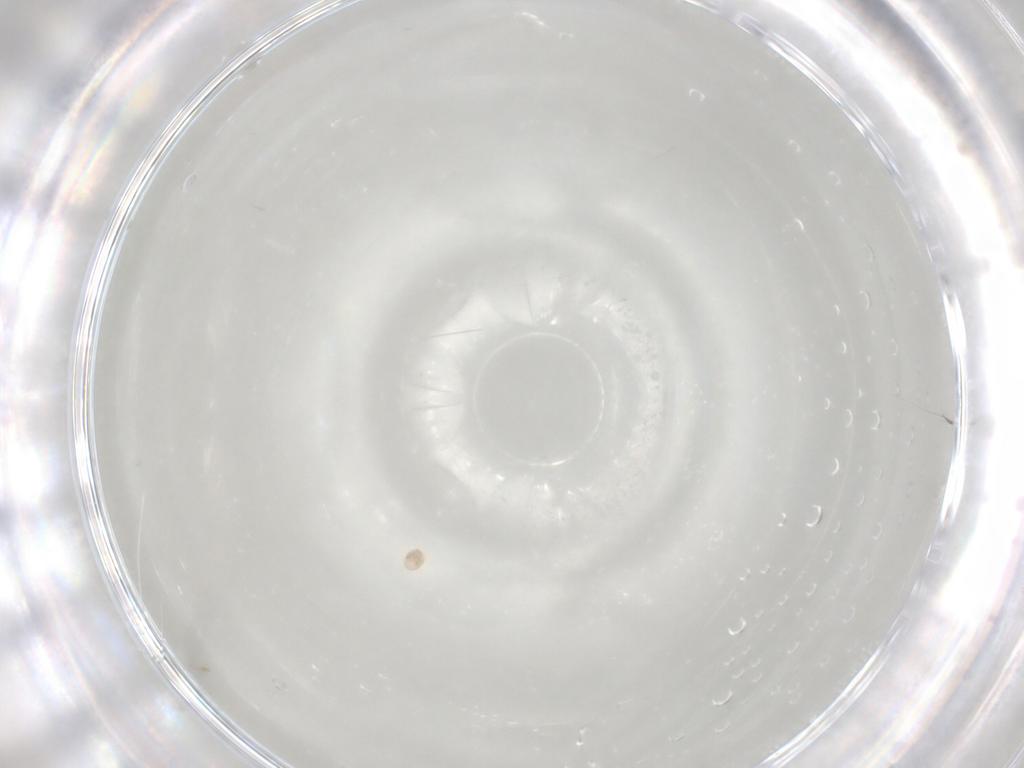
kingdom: Animalia
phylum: Arthropoda
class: Arachnida
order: Trombidiformes
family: Scutacaridae
